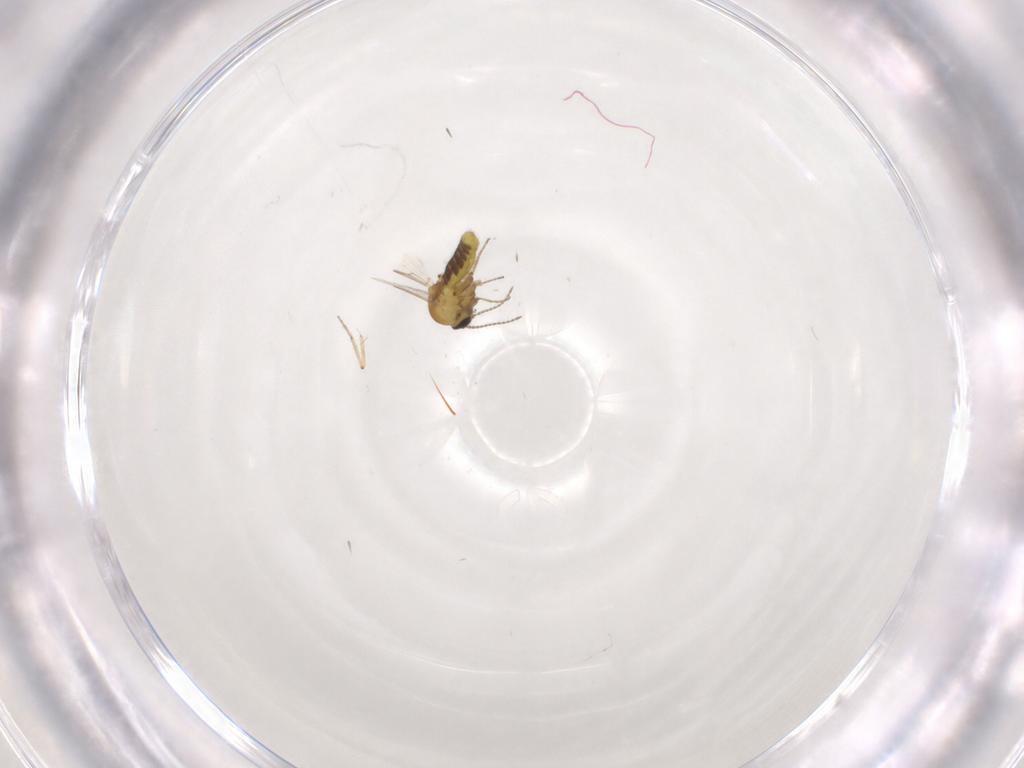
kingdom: Animalia
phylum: Arthropoda
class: Insecta
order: Diptera
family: Ceratopogonidae
